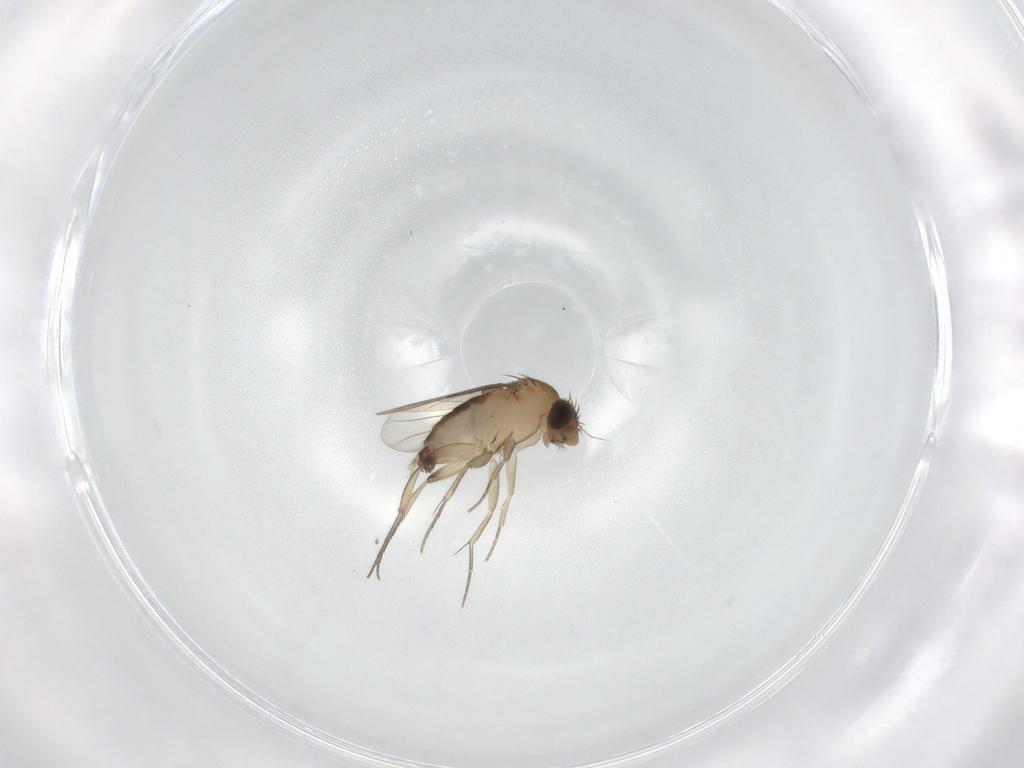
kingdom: Animalia
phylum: Arthropoda
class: Insecta
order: Diptera
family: Phoridae
